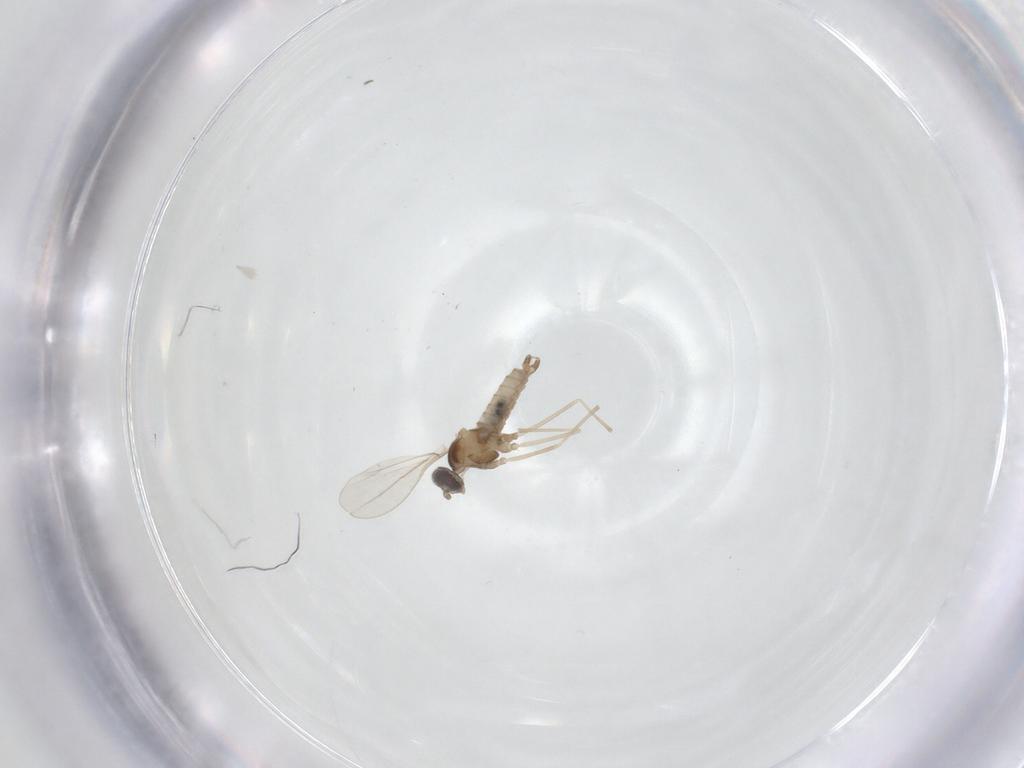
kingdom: Animalia
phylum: Arthropoda
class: Insecta
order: Diptera
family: Cecidomyiidae
